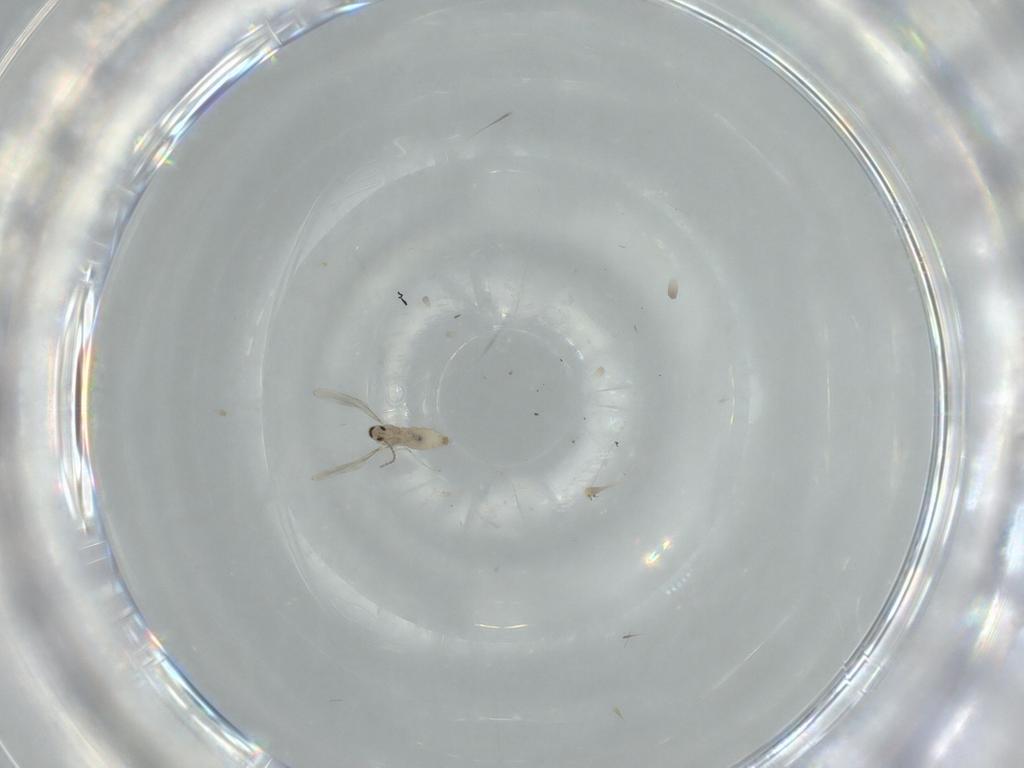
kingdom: Animalia
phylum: Arthropoda
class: Insecta
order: Diptera
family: Cecidomyiidae
